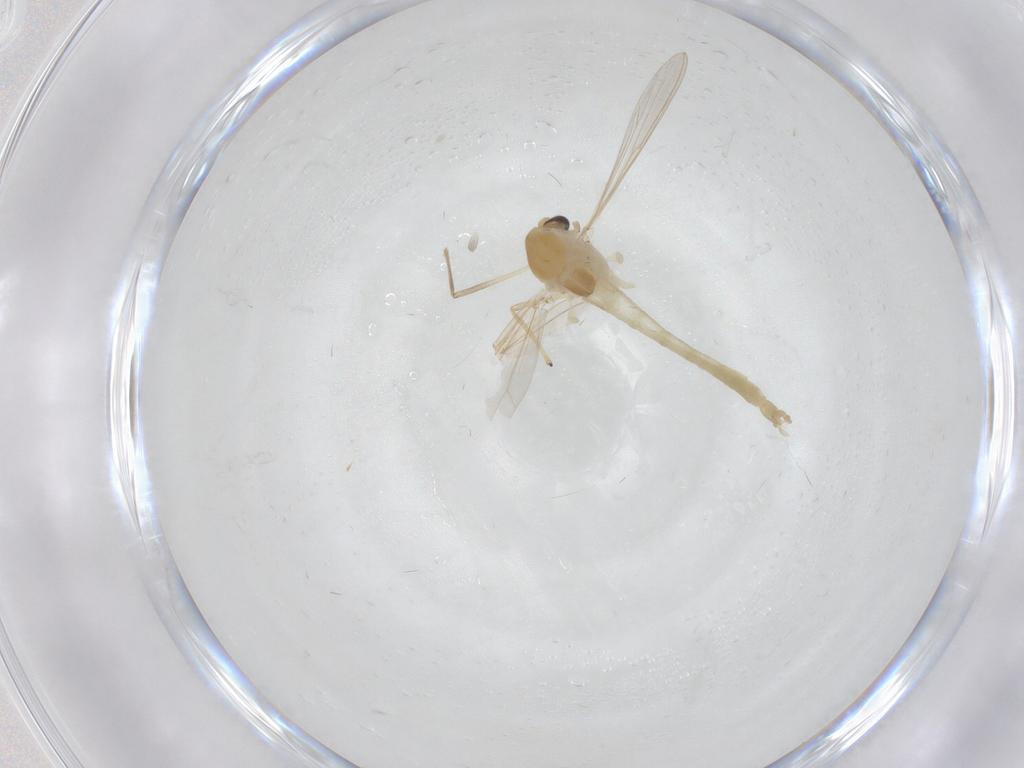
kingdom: Animalia
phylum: Arthropoda
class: Insecta
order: Diptera
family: Chironomidae
